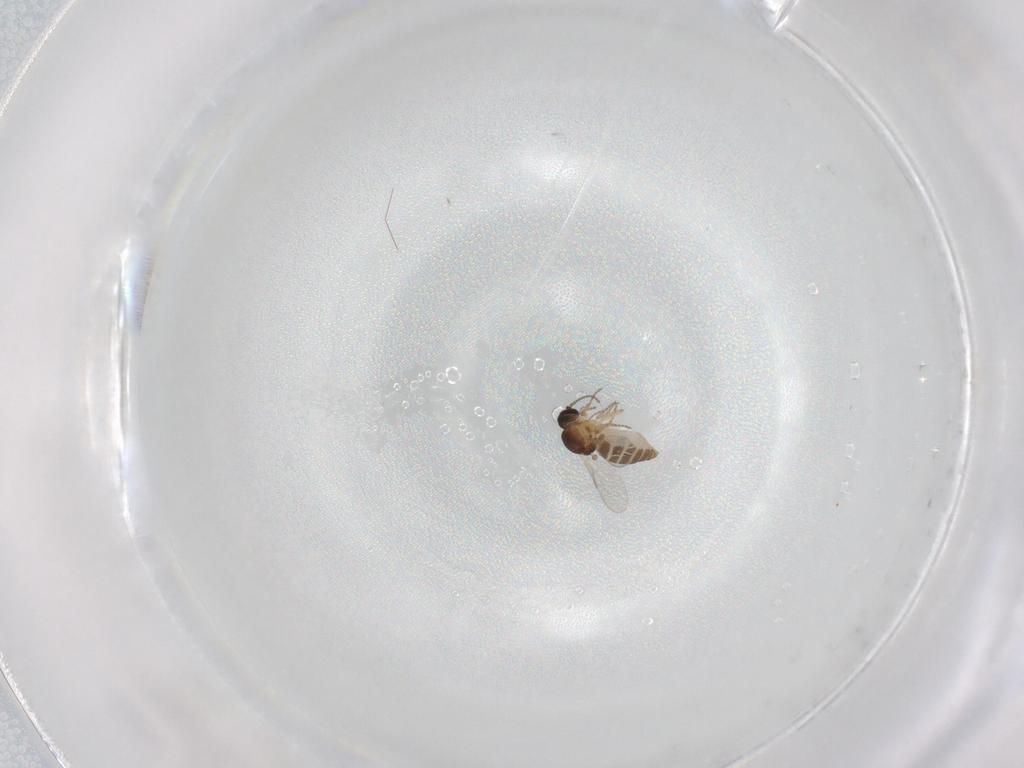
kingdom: Animalia
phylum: Arthropoda
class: Insecta
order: Diptera
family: Ceratopogonidae
